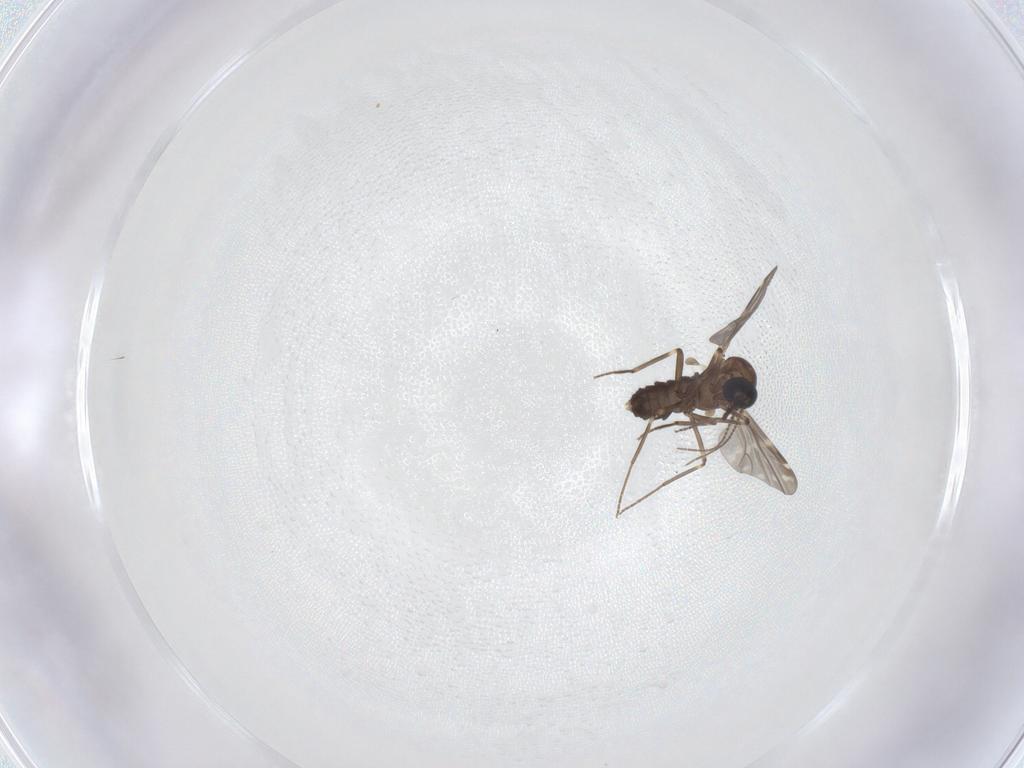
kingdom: Animalia
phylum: Arthropoda
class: Insecta
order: Diptera
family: Ceratopogonidae
